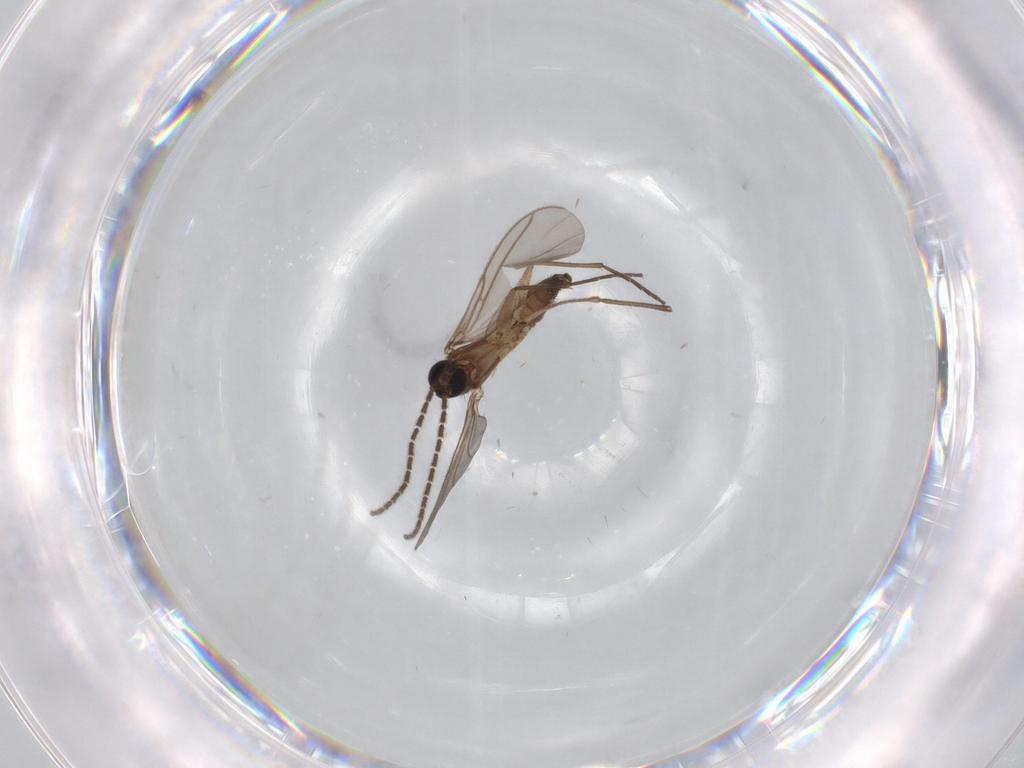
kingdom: Animalia
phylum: Arthropoda
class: Insecta
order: Diptera
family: Sciaridae
